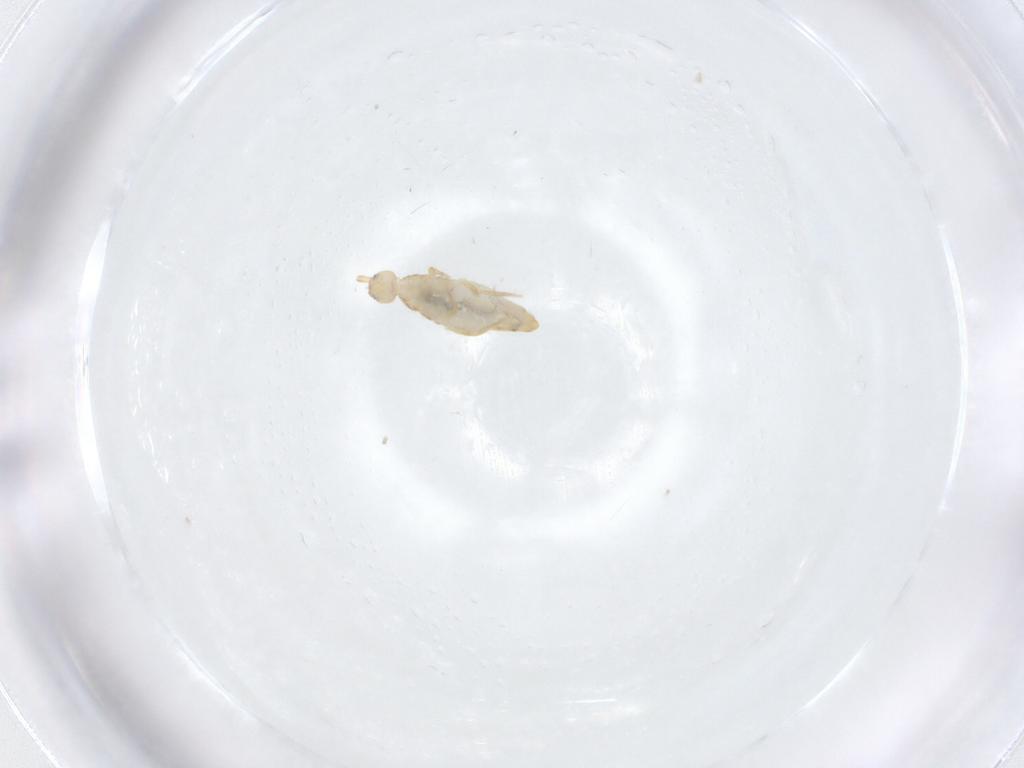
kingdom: Animalia
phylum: Arthropoda
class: Collembola
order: Entomobryomorpha
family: Entomobryidae
